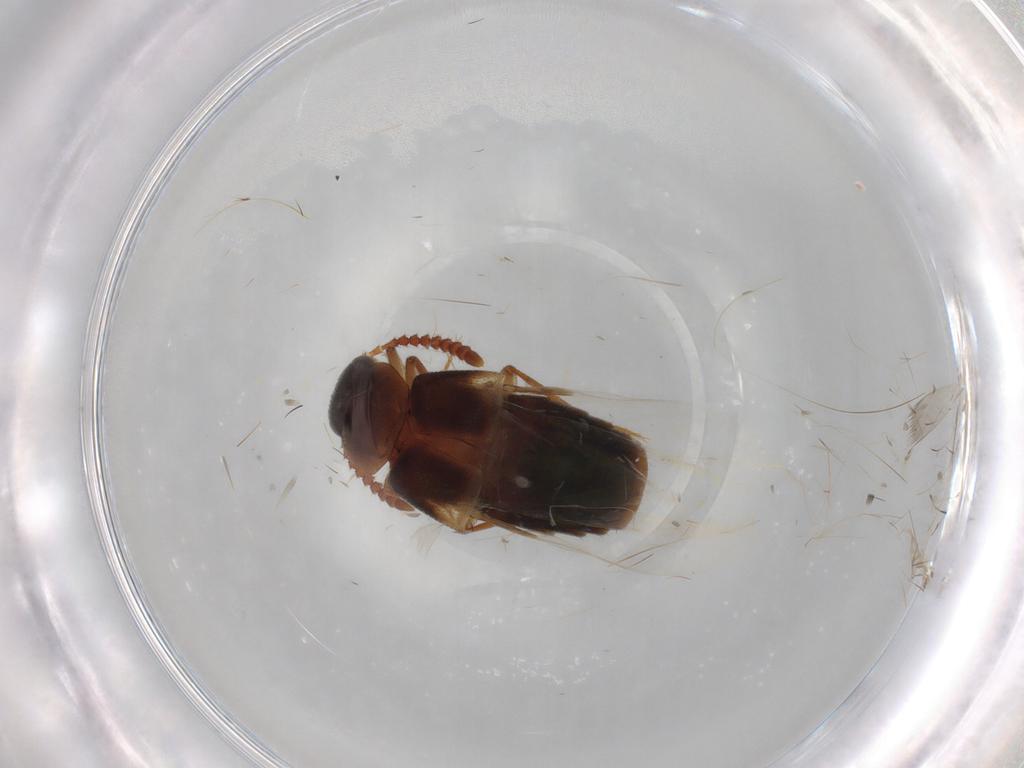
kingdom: Animalia
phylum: Arthropoda
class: Insecta
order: Coleoptera
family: Staphylinidae
